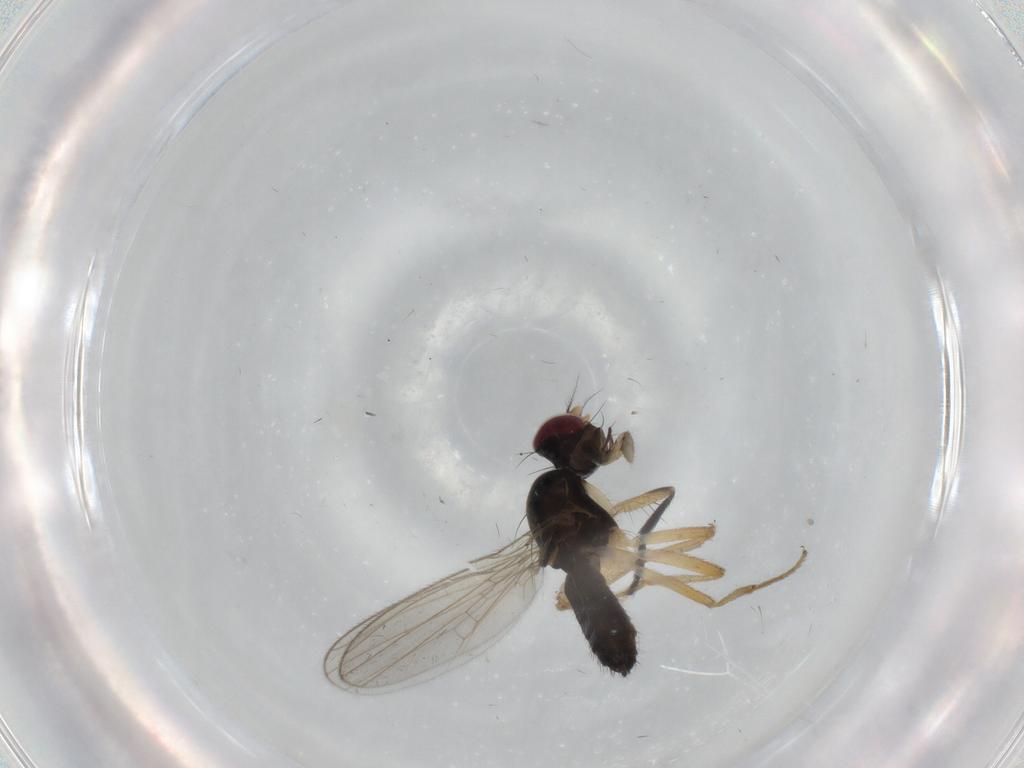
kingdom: Animalia
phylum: Arthropoda
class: Insecta
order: Diptera
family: Anthomyzidae
